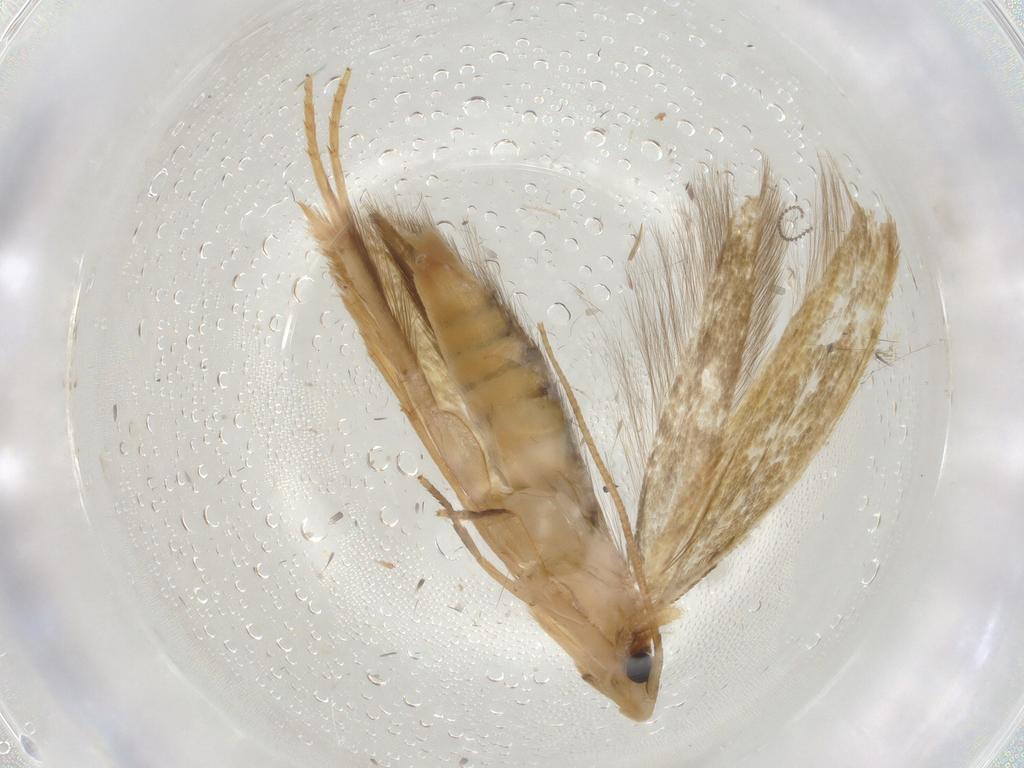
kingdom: Animalia
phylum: Arthropoda
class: Insecta
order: Lepidoptera
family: Tineidae
